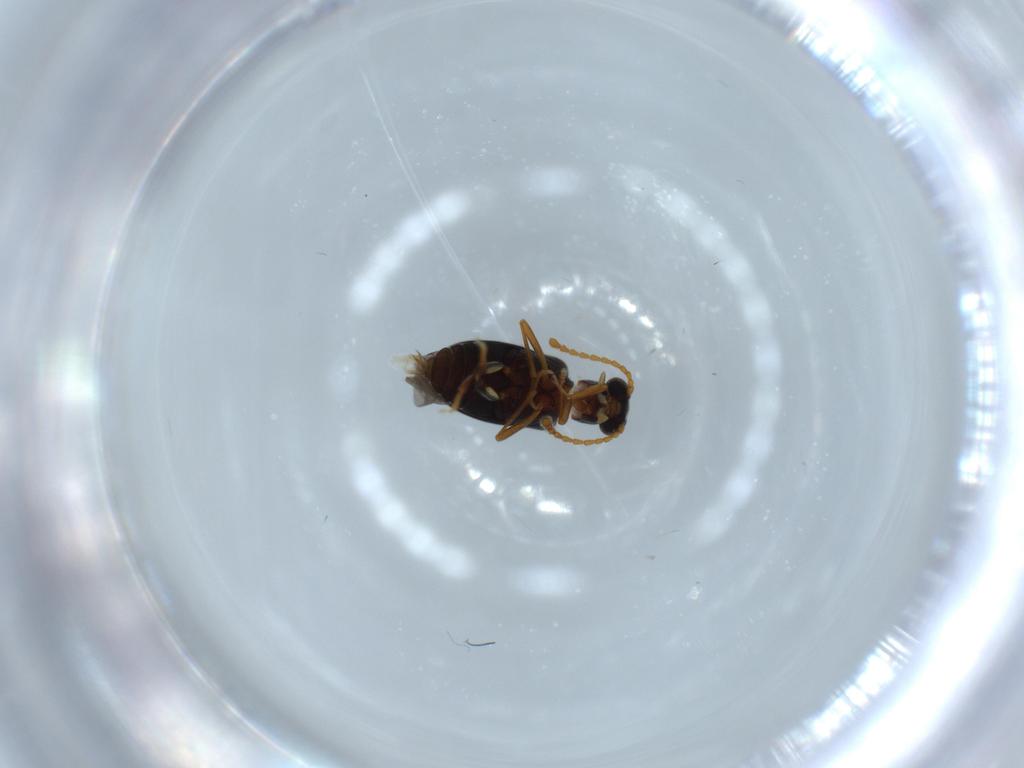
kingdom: Animalia
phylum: Arthropoda
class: Insecta
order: Coleoptera
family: Aderidae
